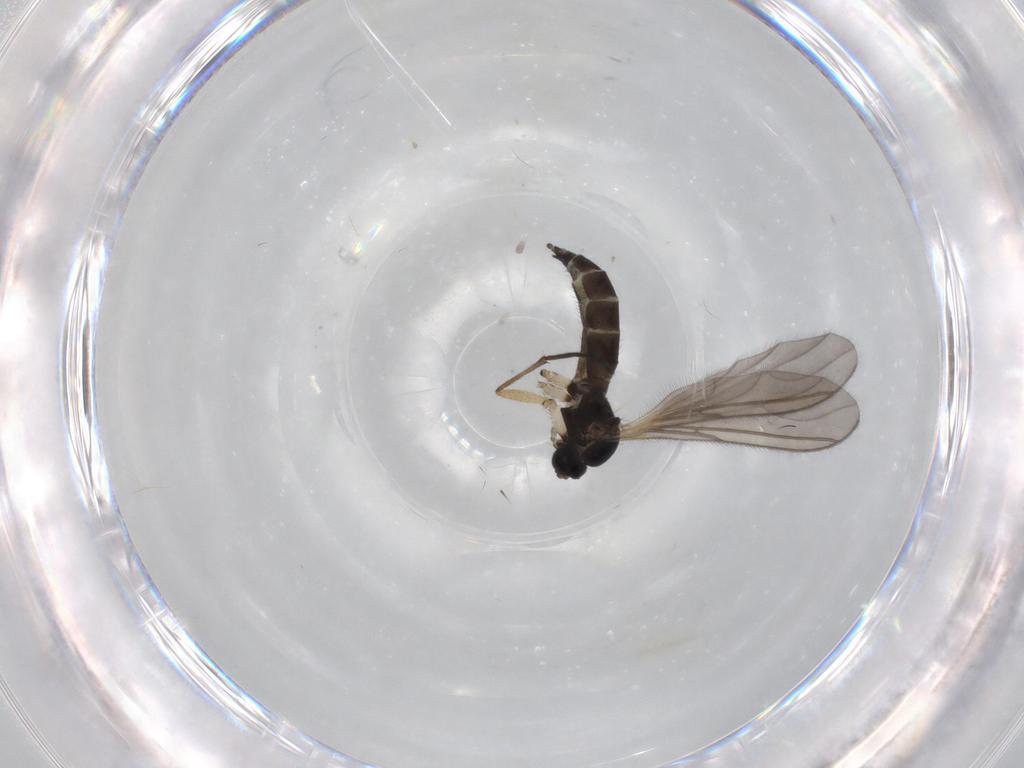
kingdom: Animalia
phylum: Arthropoda
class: Insecta
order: Diptera
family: Sciaridae
